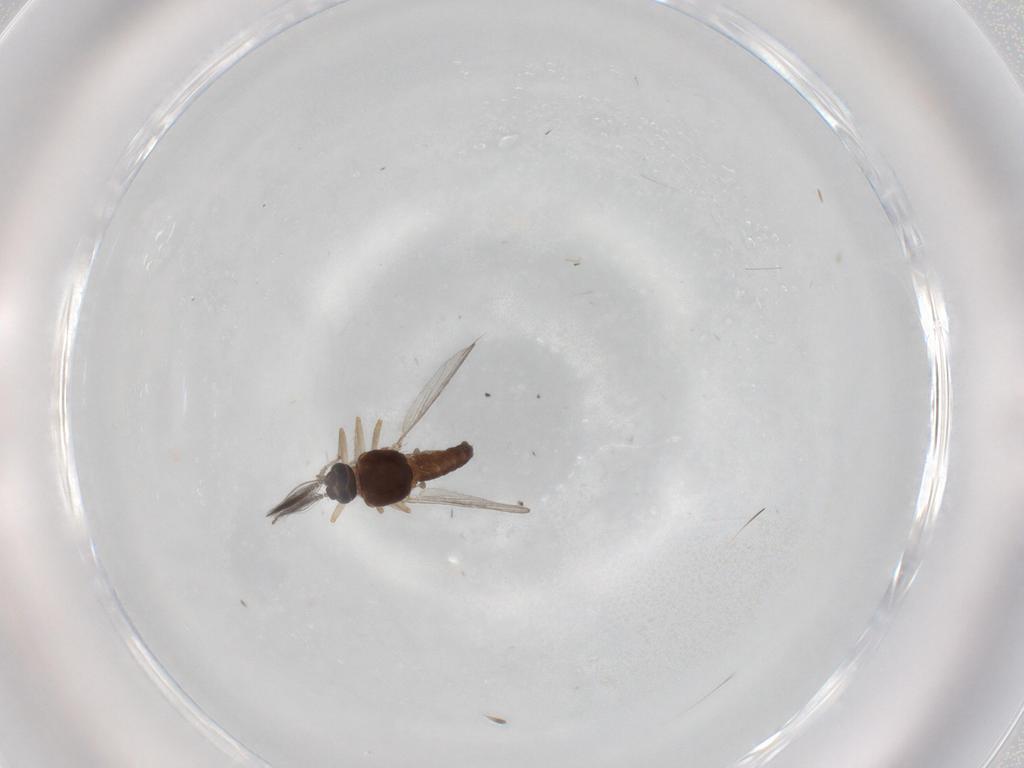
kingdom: Animalia
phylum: Arthropoda
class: Insecta
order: Diptera
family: Ceratopogonidae
